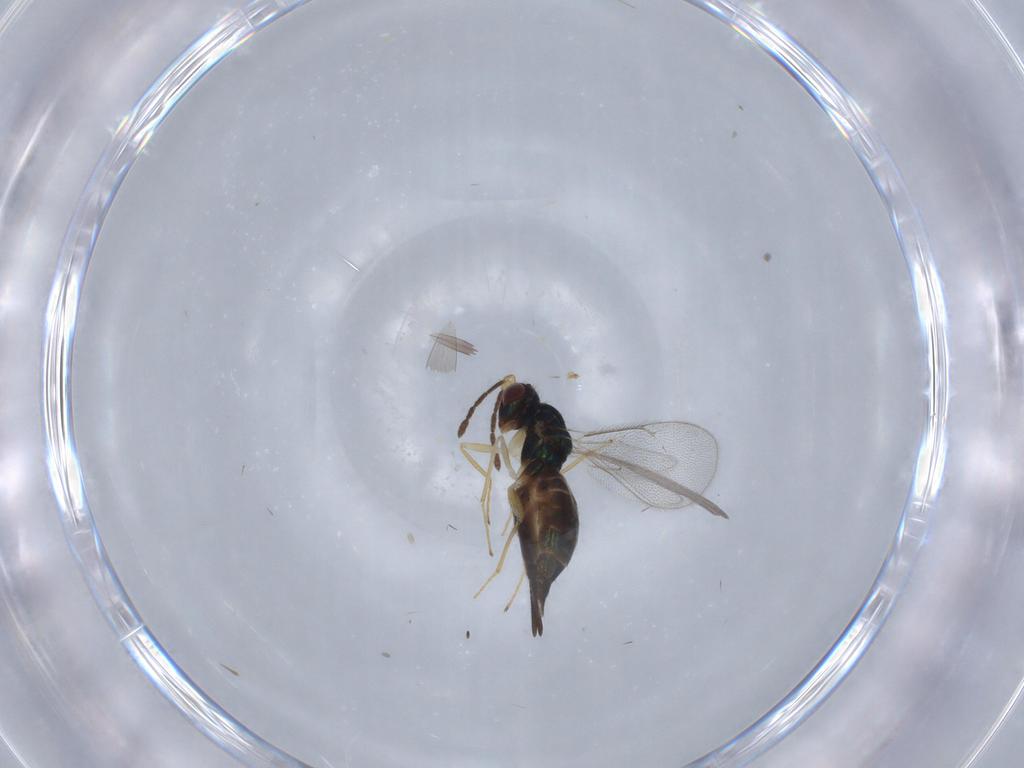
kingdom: Animalia
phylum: Arthropoda
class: Insecta
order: Hymenoptera
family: Eulophidae
